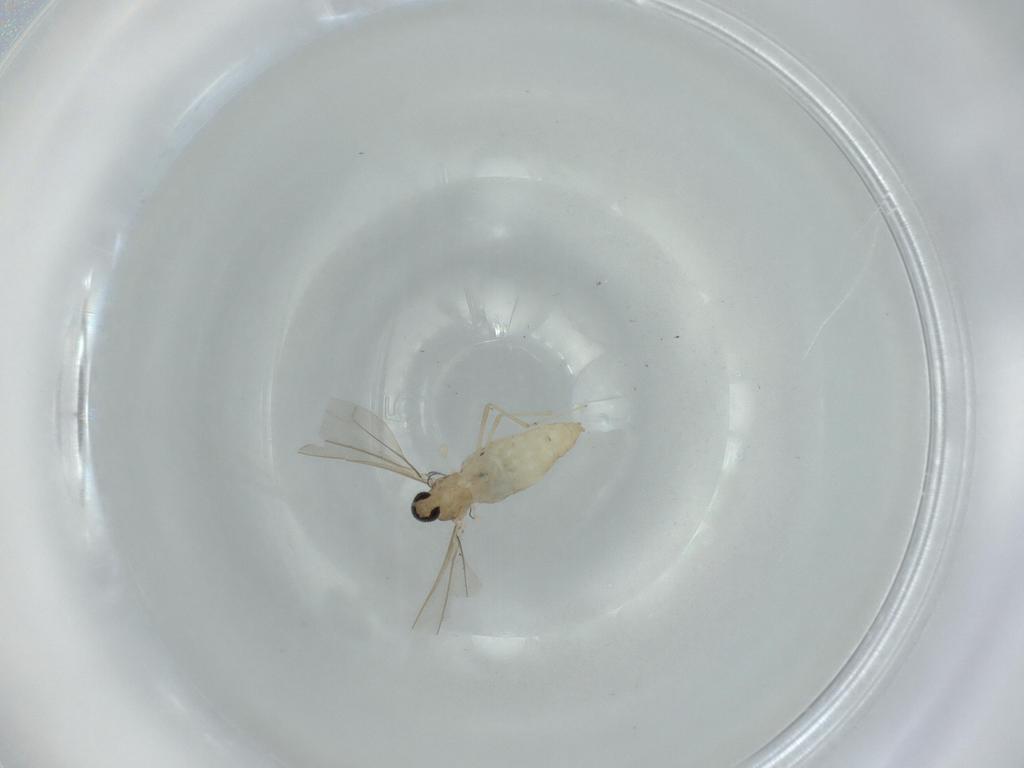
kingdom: Animalia
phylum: Arthropoda
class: Insecta
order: Diptera
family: Cecidomyiidae
